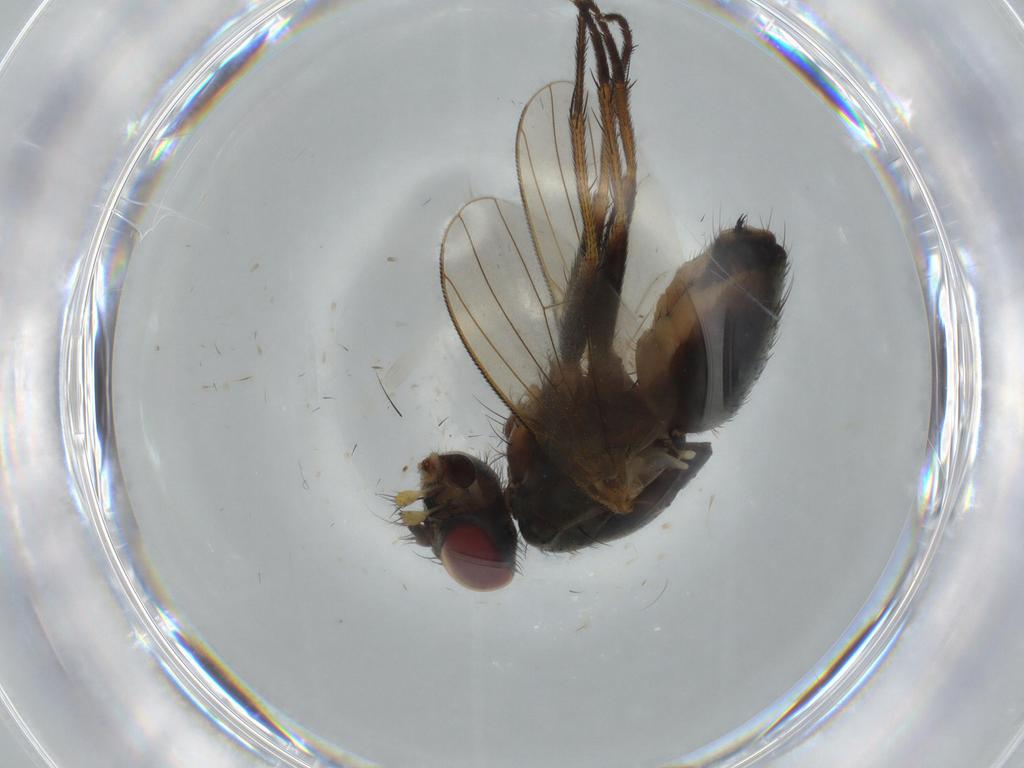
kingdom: Animalia
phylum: Arthropoda
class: Insecta
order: Diptera
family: Muscidae
